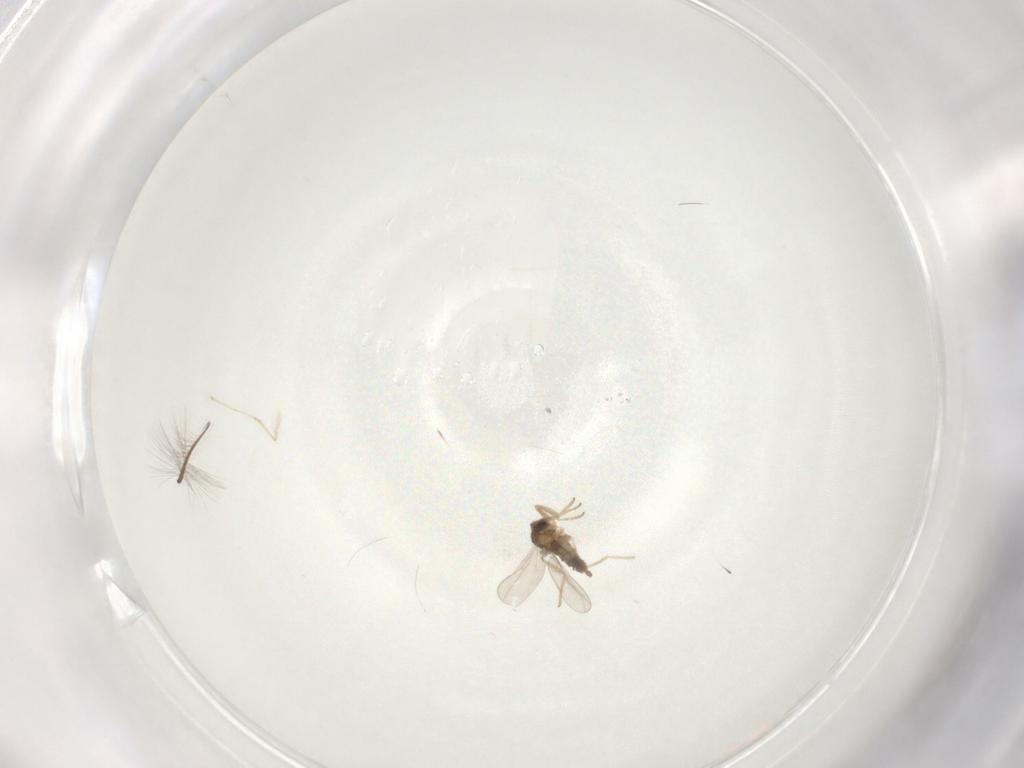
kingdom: Animalia
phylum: Arthropoda
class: Insecta
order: Diptera
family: Cecidomyiidae
